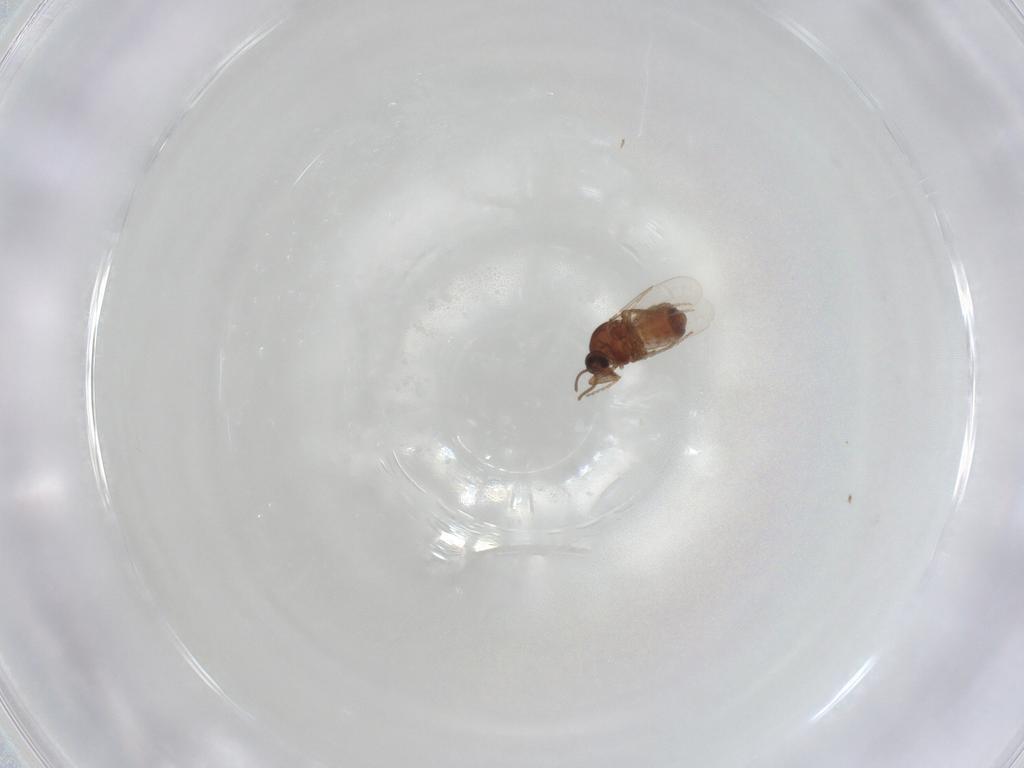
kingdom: Animalia
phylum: Arthropoda
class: Insecta
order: Diptera
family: Ceratopogonidae
